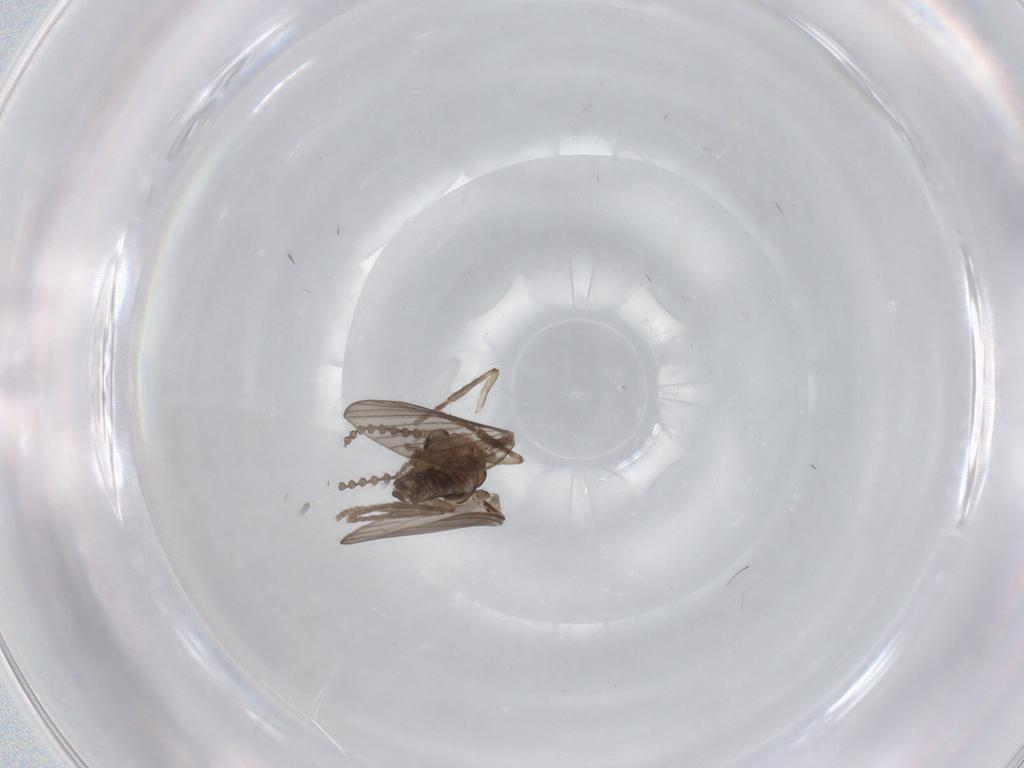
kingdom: Animalia
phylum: Arthropoda
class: Insecta
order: Diptera
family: Psychodidae
